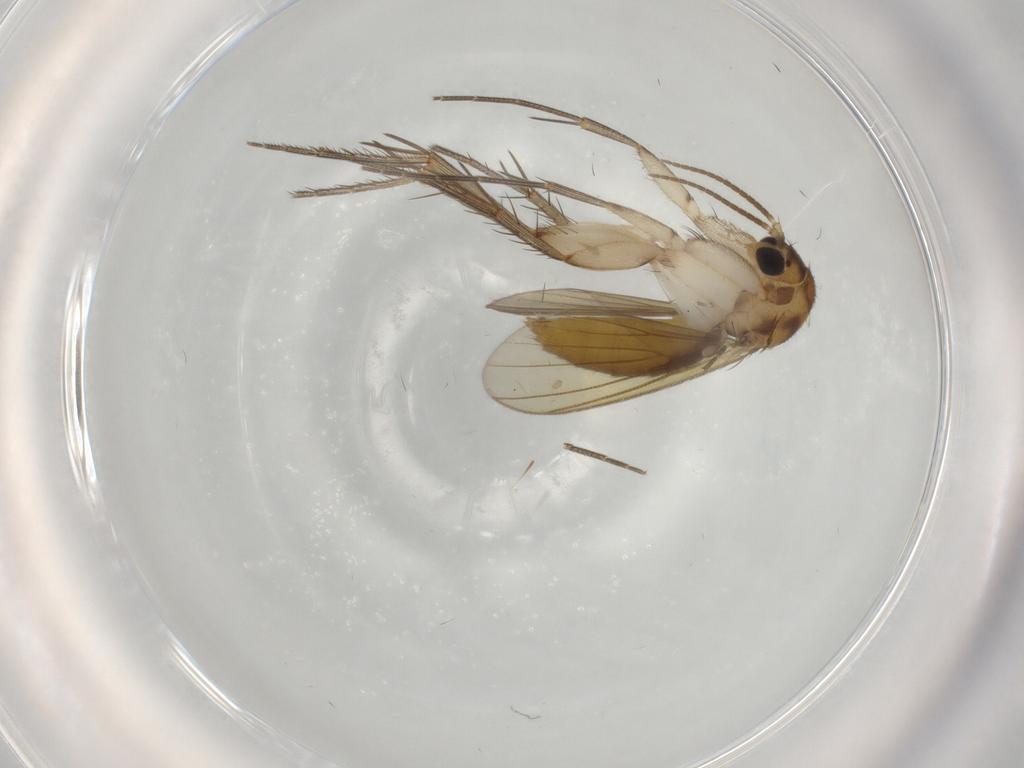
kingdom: Animalia
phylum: Arthropoda
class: Insecta
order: Diptera
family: Mycetophilidae
